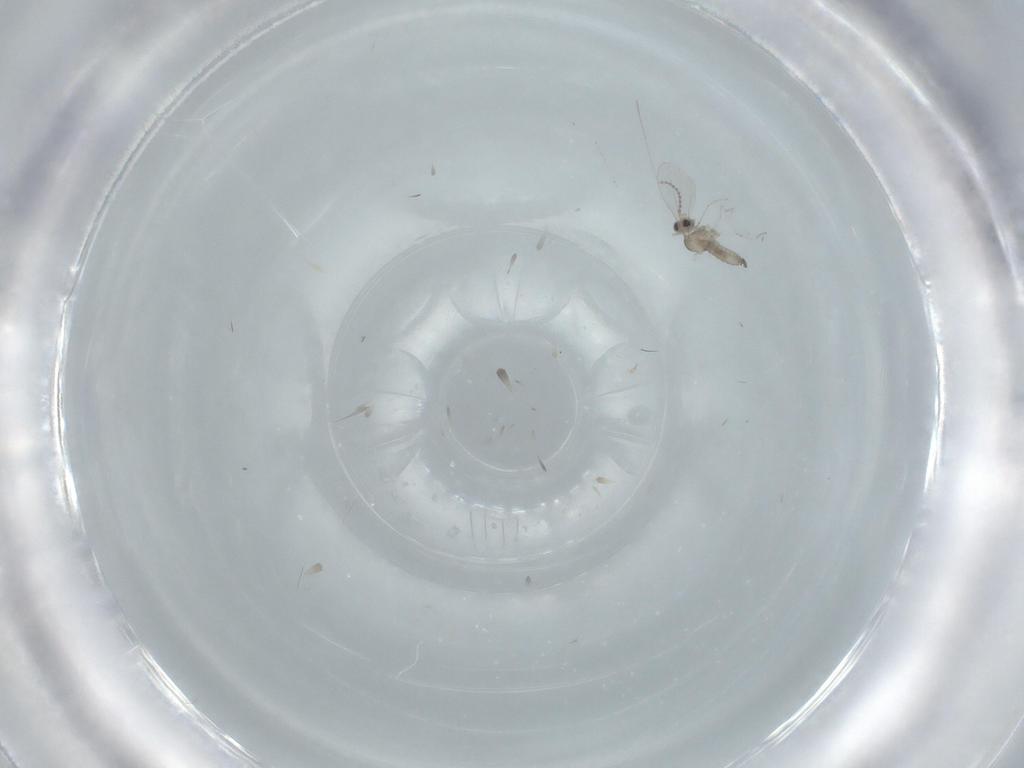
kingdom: Animalia
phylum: Arthropoda
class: Insecta
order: Diptera
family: Cecidomyiidae
